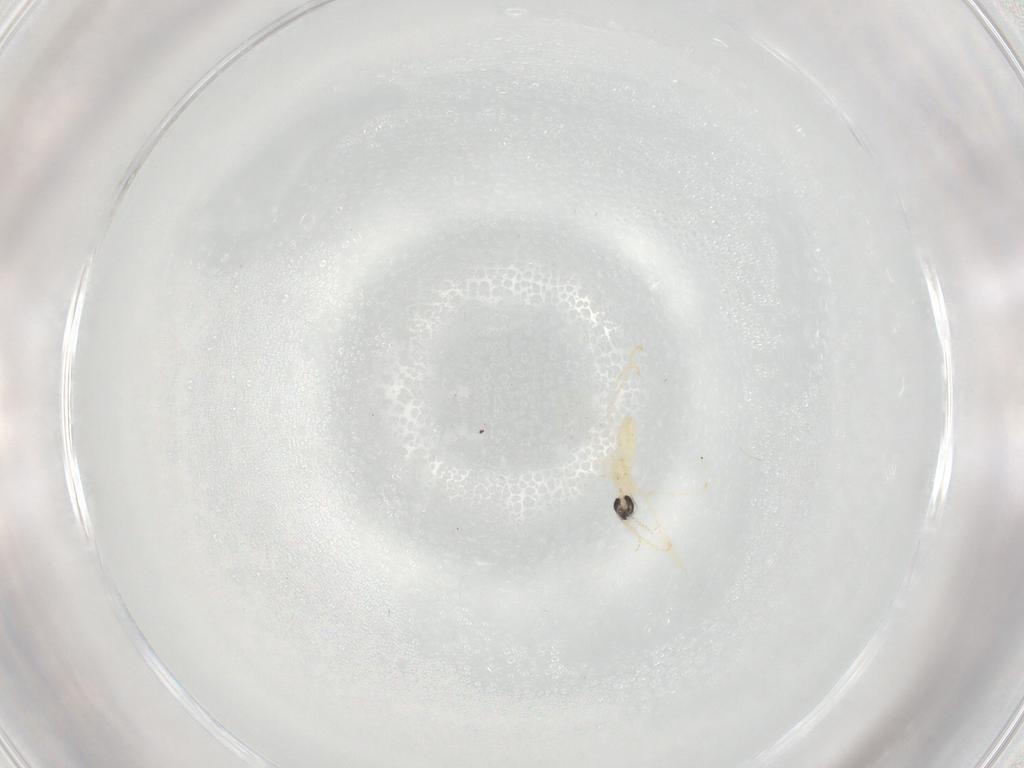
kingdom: Animalia
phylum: Arthropoda
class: Insecta
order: Diptera
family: Cecidomyiidae
